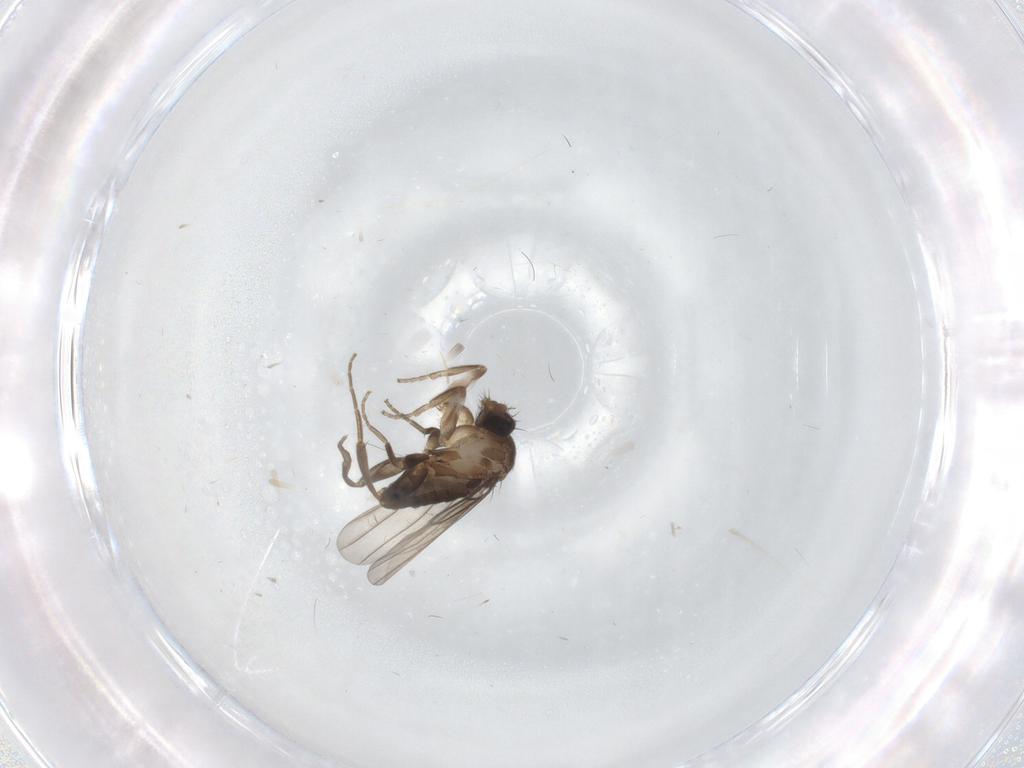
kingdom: Animalia
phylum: Arthropoda
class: Insecta
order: Diptera
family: Phoridae
